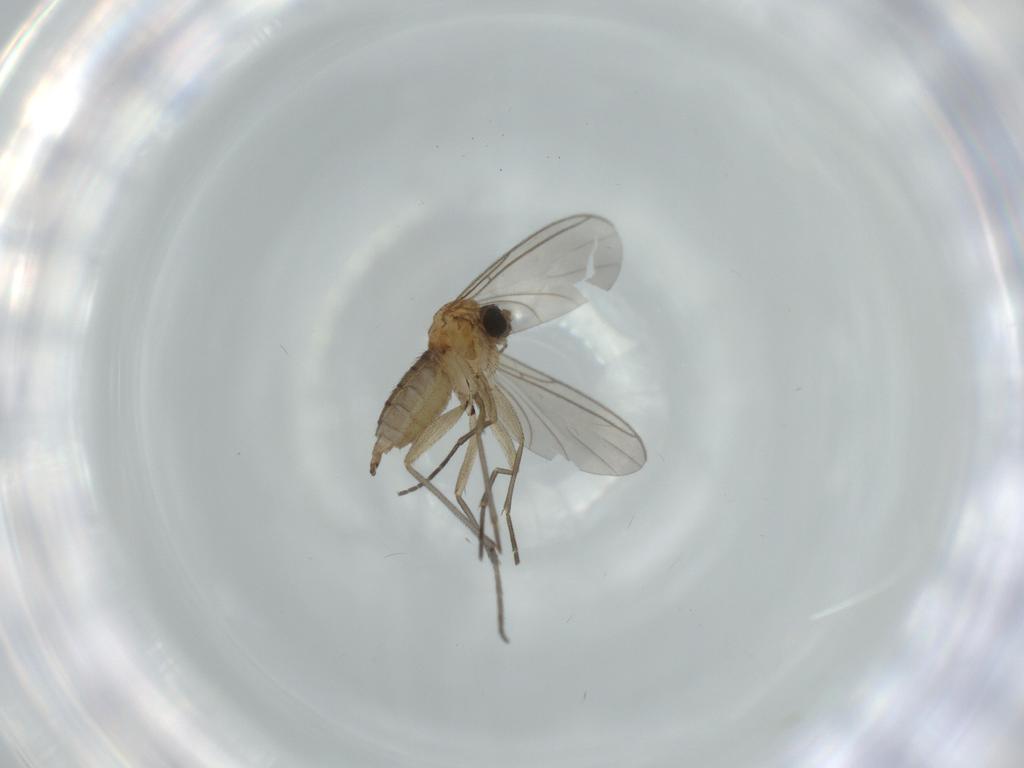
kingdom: Animalia
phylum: Arthropoda
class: Insecta
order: Diptera
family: Sciaridae
